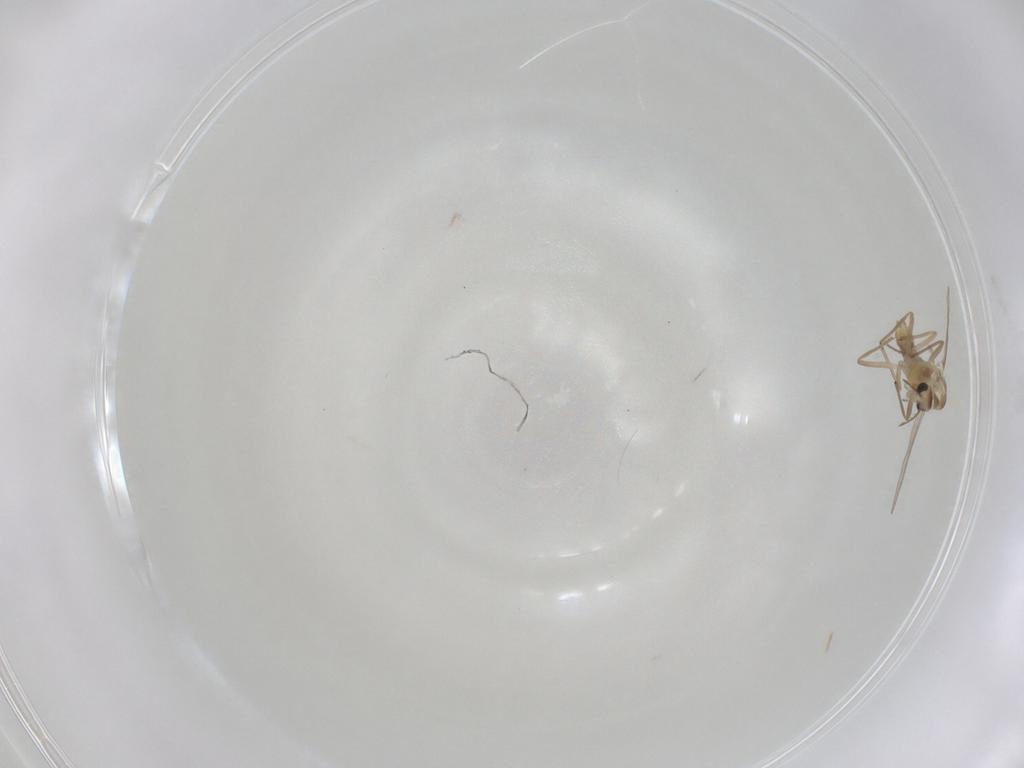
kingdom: Animalia
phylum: Arthropoda
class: Insecta
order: Diptera
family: Chironomidae
